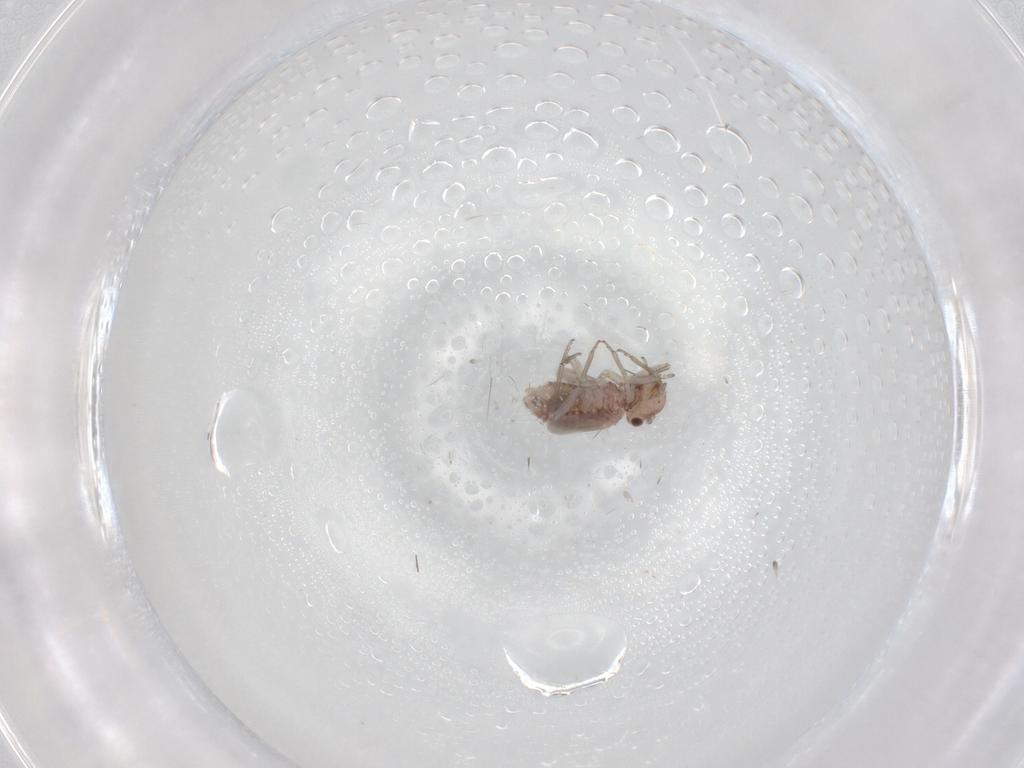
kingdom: Animalia
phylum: Arthropoda
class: Insecta
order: Psocodea
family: Lachesillidae
